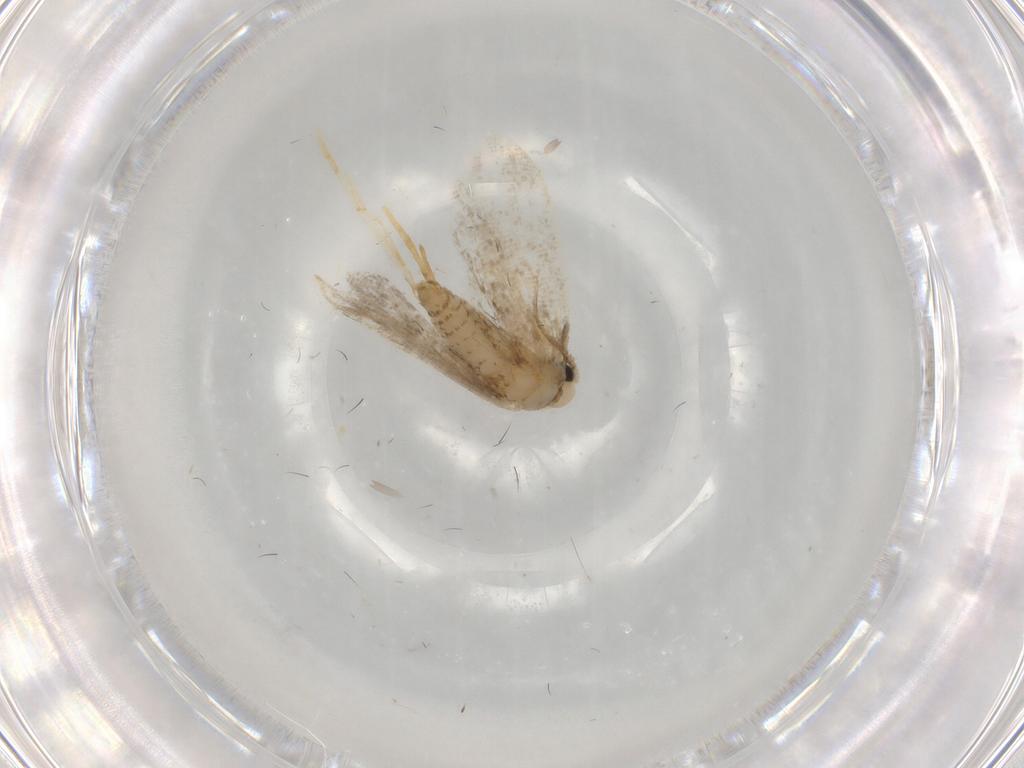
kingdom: Animalia
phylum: Arthropoda
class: Insecta
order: Lepidoptera
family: Psychidae
